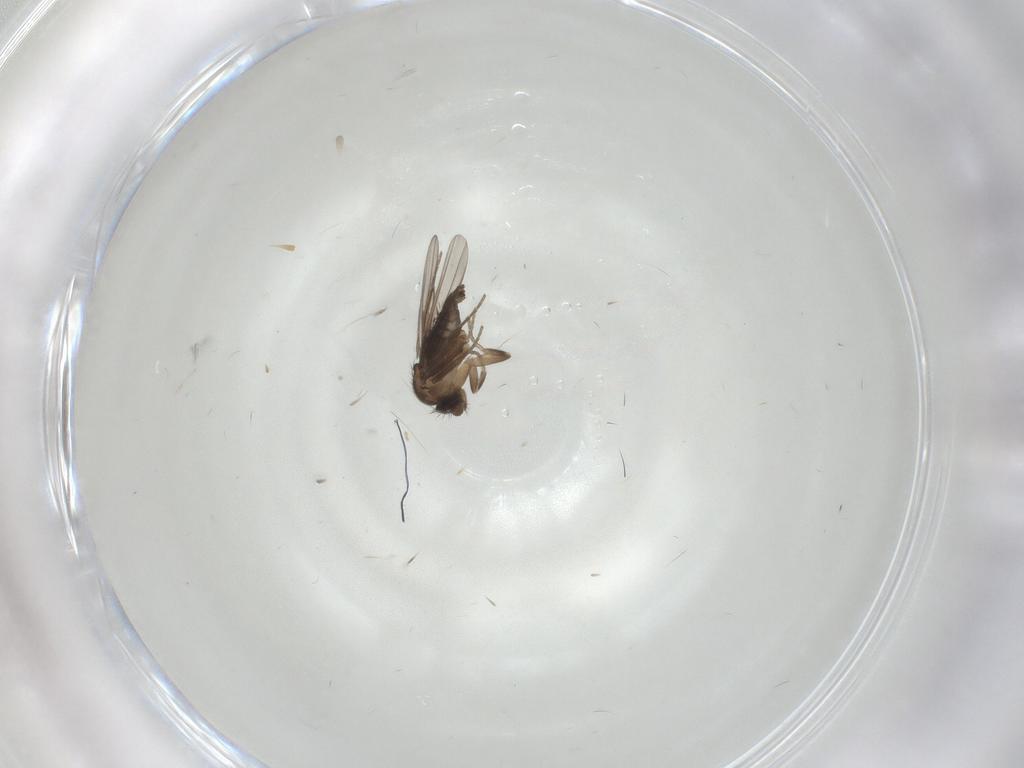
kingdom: Animalia
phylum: Arthropoda
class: Insecta
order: Diptera
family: Phoridae
